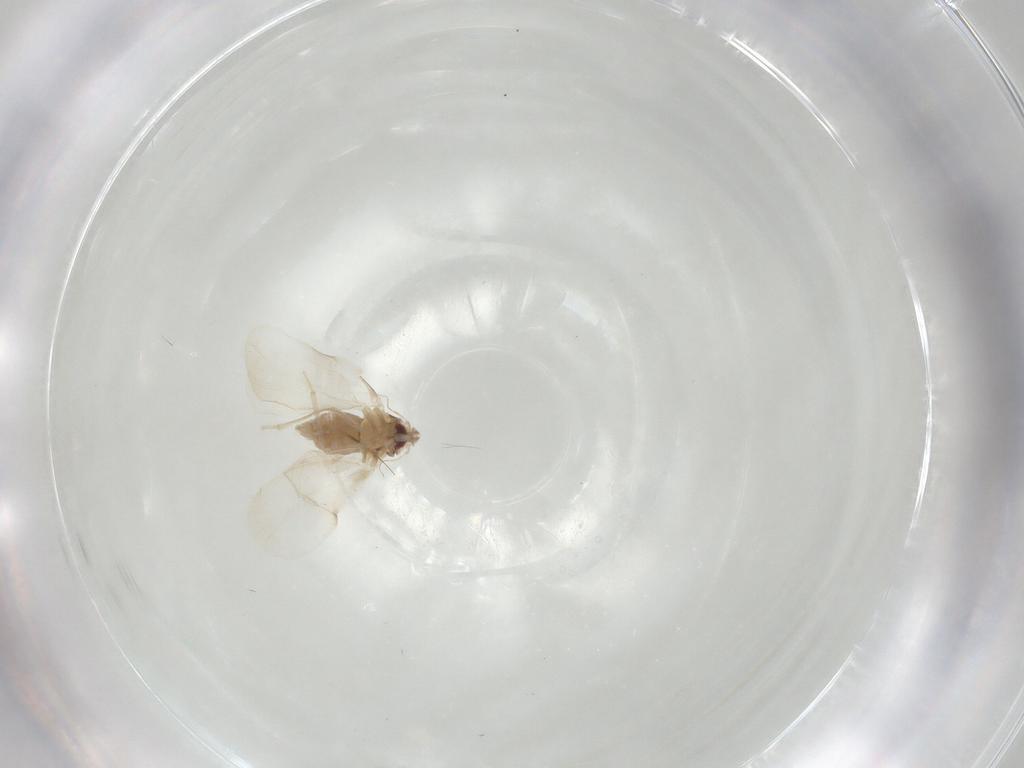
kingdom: Animalia
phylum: Arthropoda
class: Insecta
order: Hemiptera
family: Aleyrodidae
